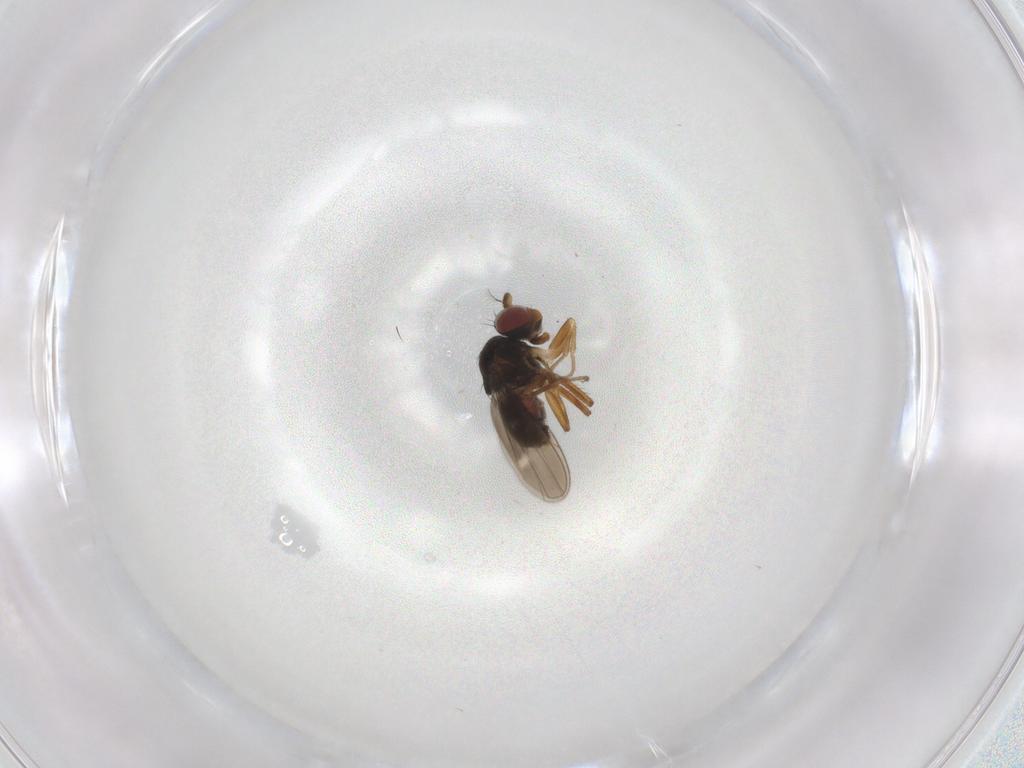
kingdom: Animalia
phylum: Arthropoda
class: Insecta
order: Diptera
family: Ephydridae
